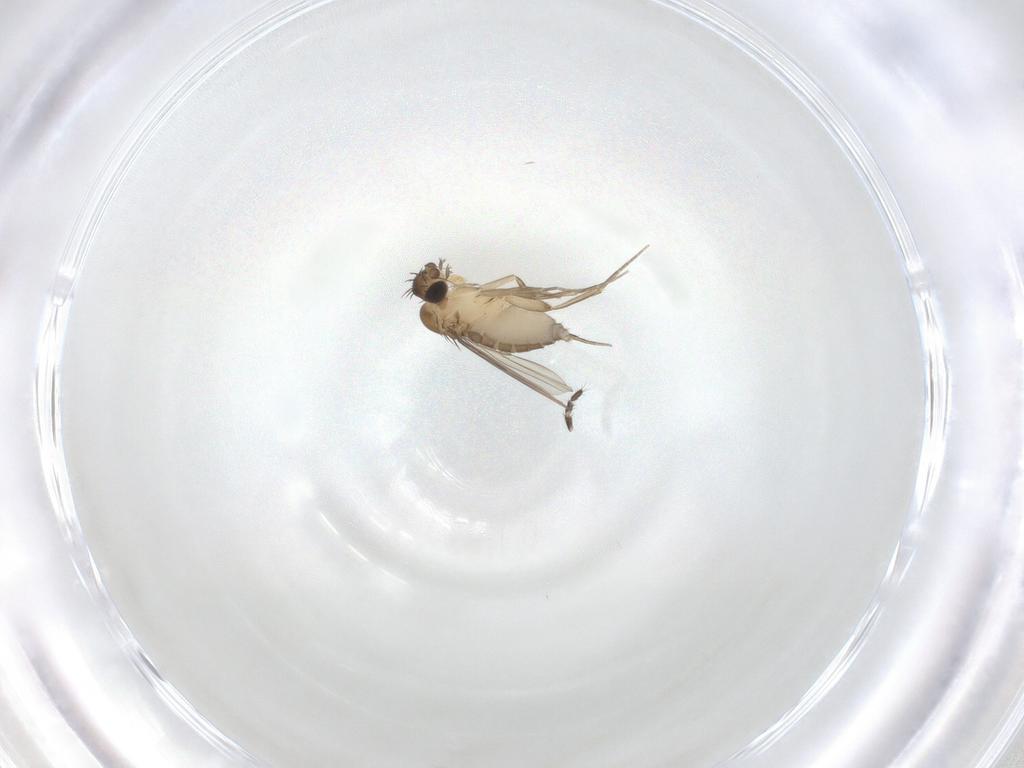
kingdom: Animalia
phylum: Arthropoda
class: Insecta
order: Diptera
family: Limoniidae
